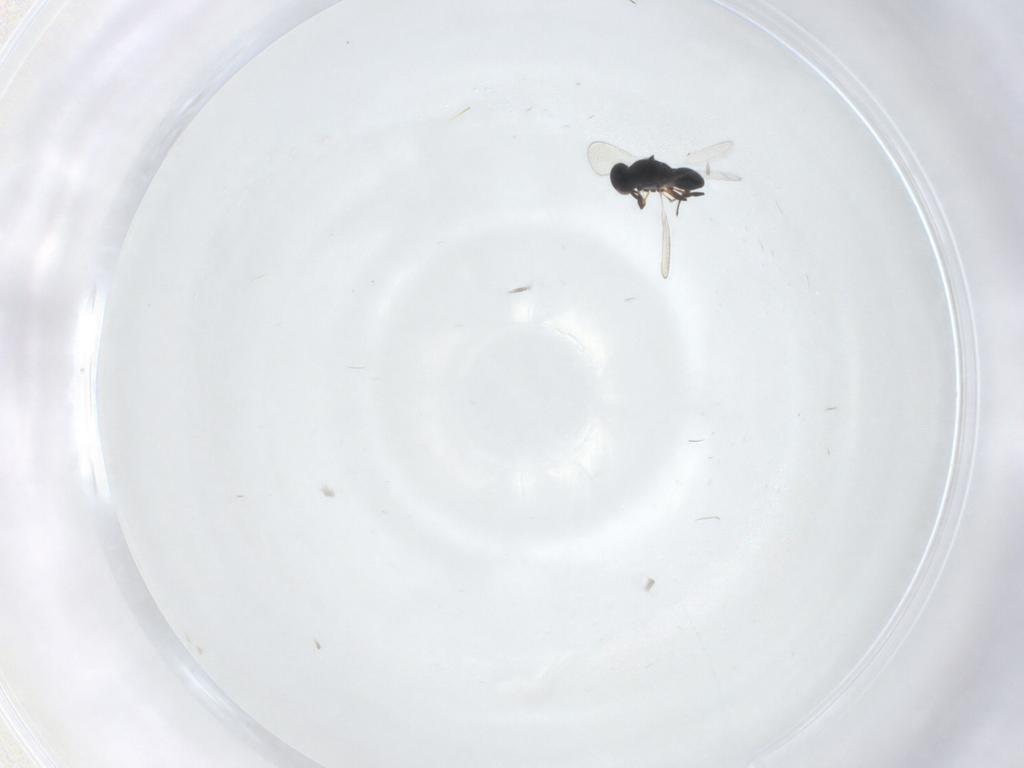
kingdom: Animalia
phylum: Arthropoda
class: Insecta
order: Hymenoptera
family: Platygastridae
